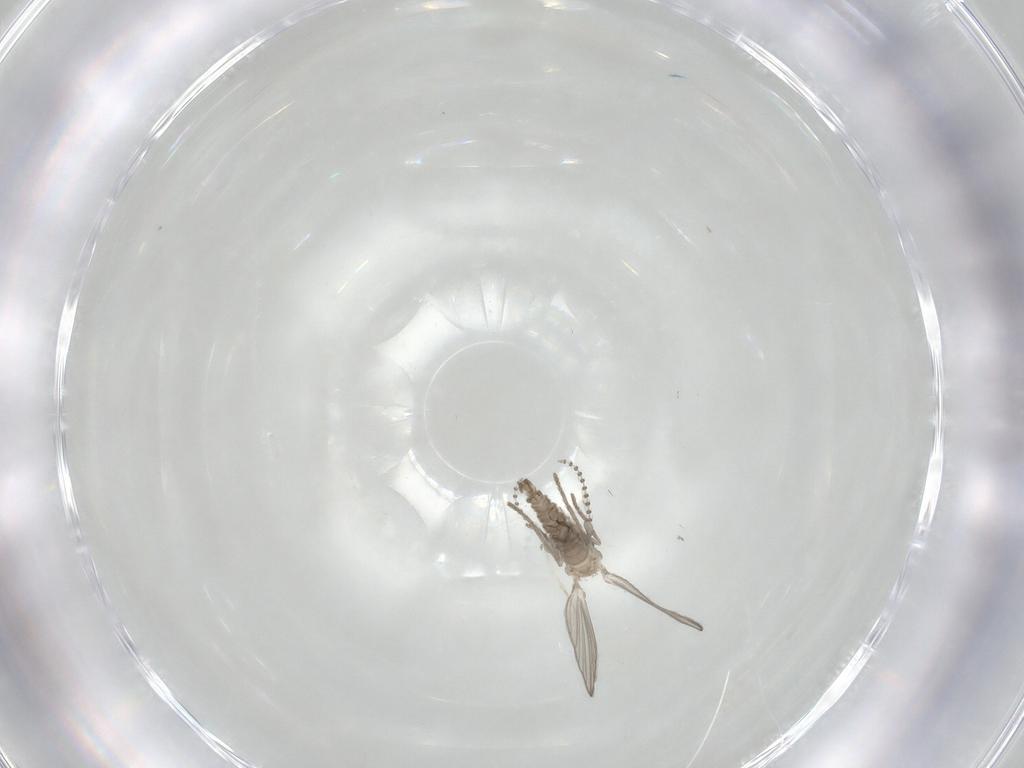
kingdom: Animalia
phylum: Arthropoda
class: Insecta
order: Diptera
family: Psychodidae
